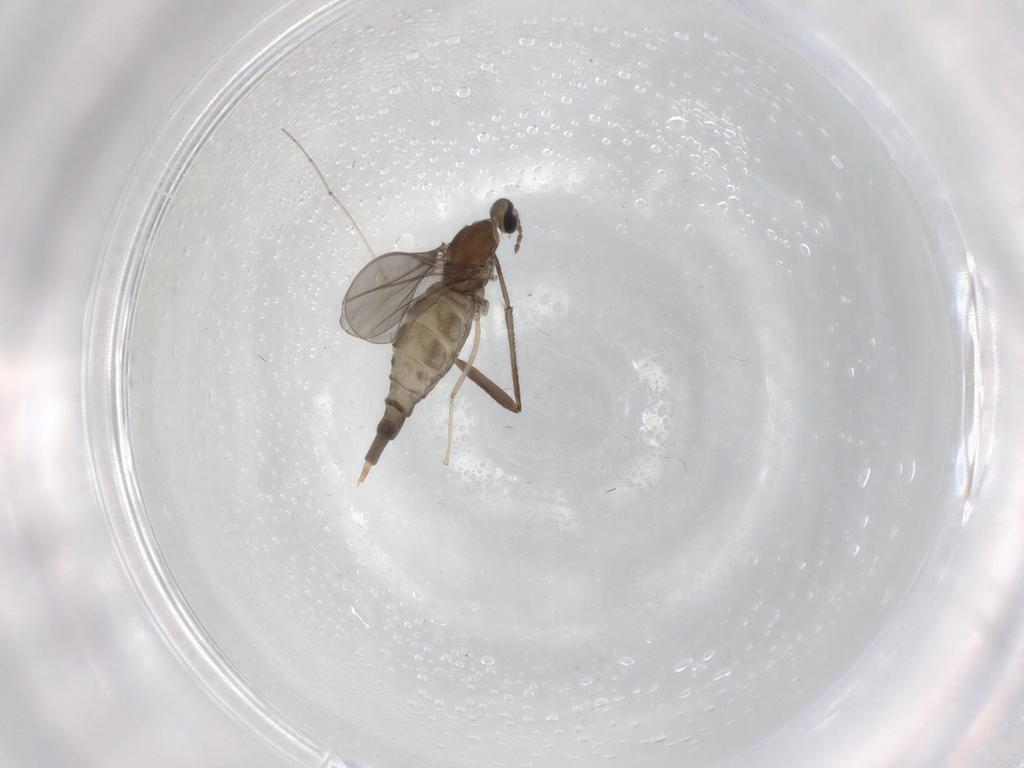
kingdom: Animalia
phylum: Arthropoda
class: Insecta
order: Diptera
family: Cecidomyiidae
